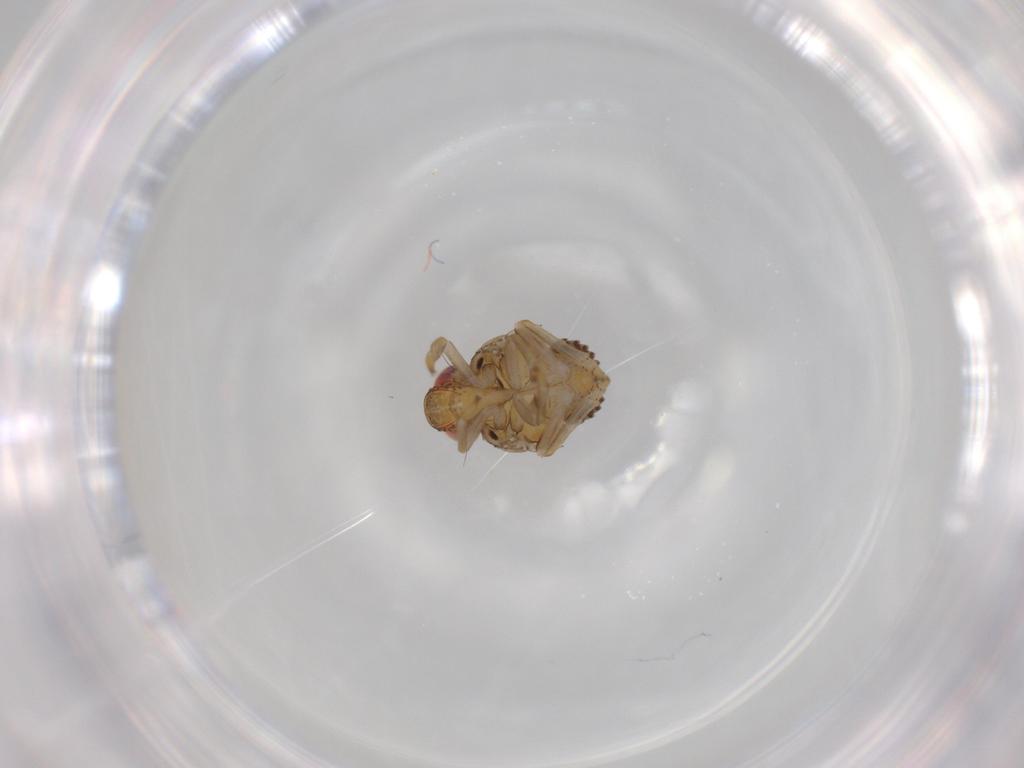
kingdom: Animalia
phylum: Arthropoda
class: Insecta
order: Hemiptera
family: Issidae
